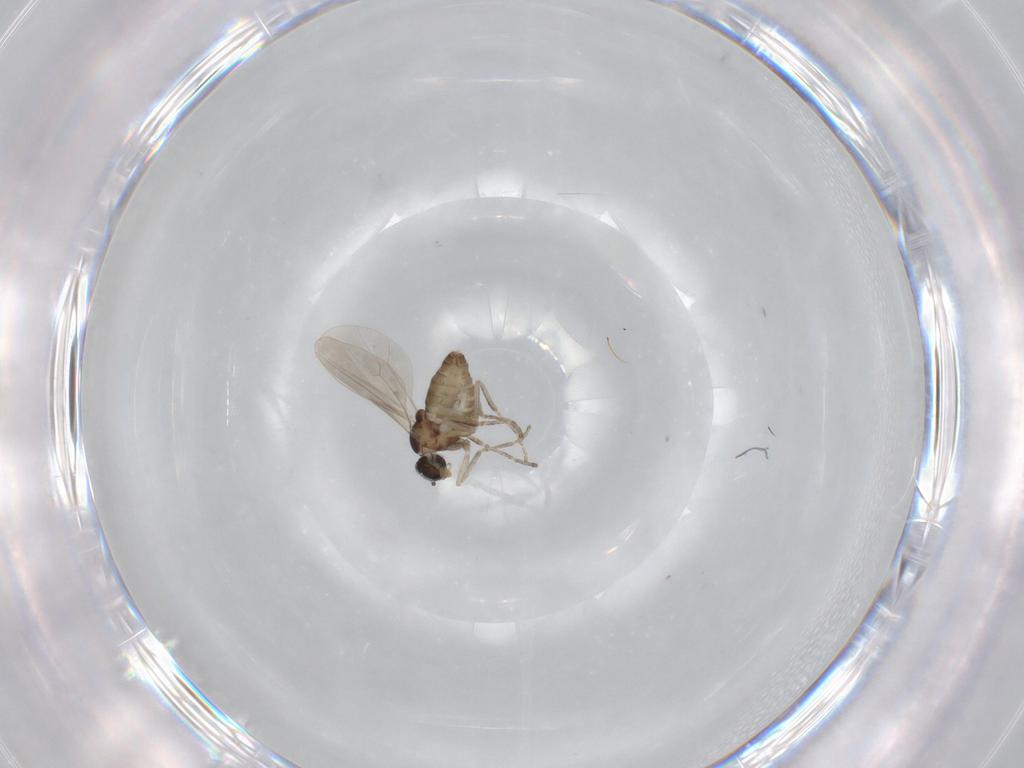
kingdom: Animalia
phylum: Arthropoda
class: Insecta
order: Diptera
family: Cecidomyiidae
